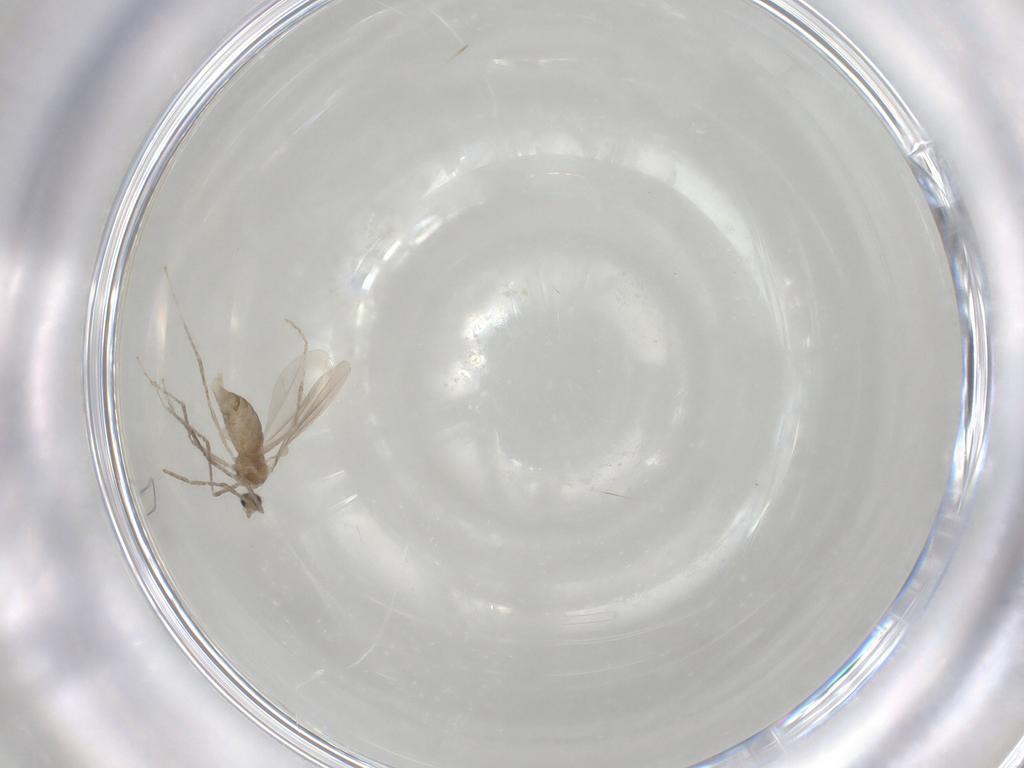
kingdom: Animalia
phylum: Arthropoda
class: Insecta
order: Diptera
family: Cecidomyiidae
